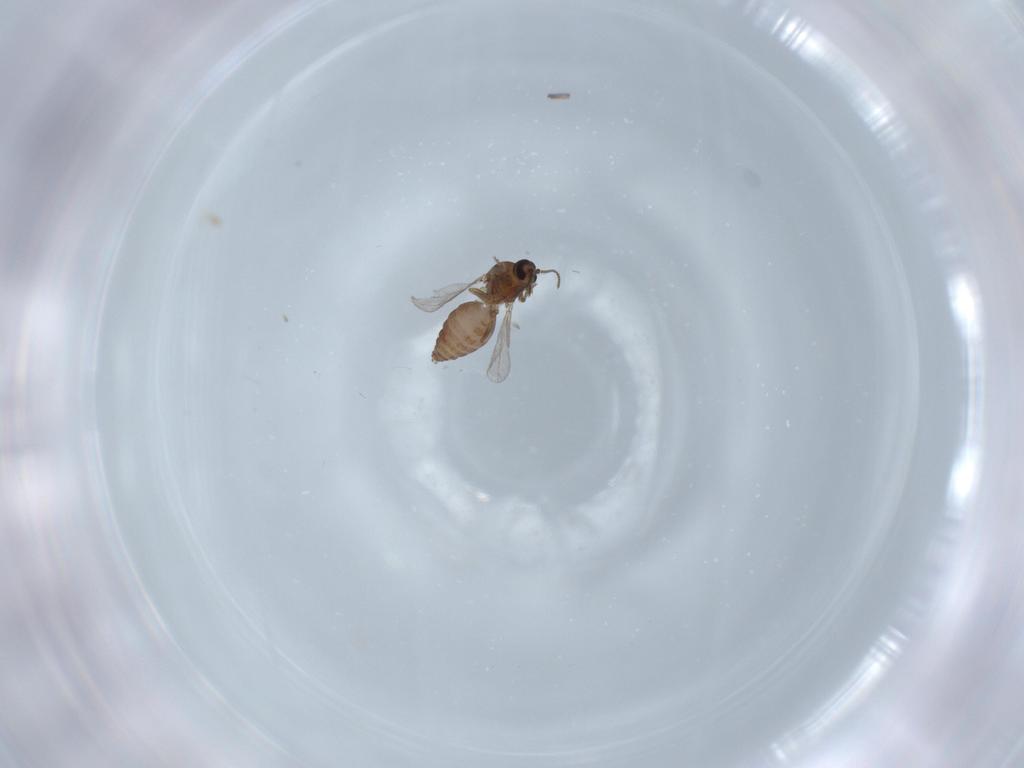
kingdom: Animalia
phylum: Arthropoda
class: Insecta
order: Diptera
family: Ceratopogonidae
